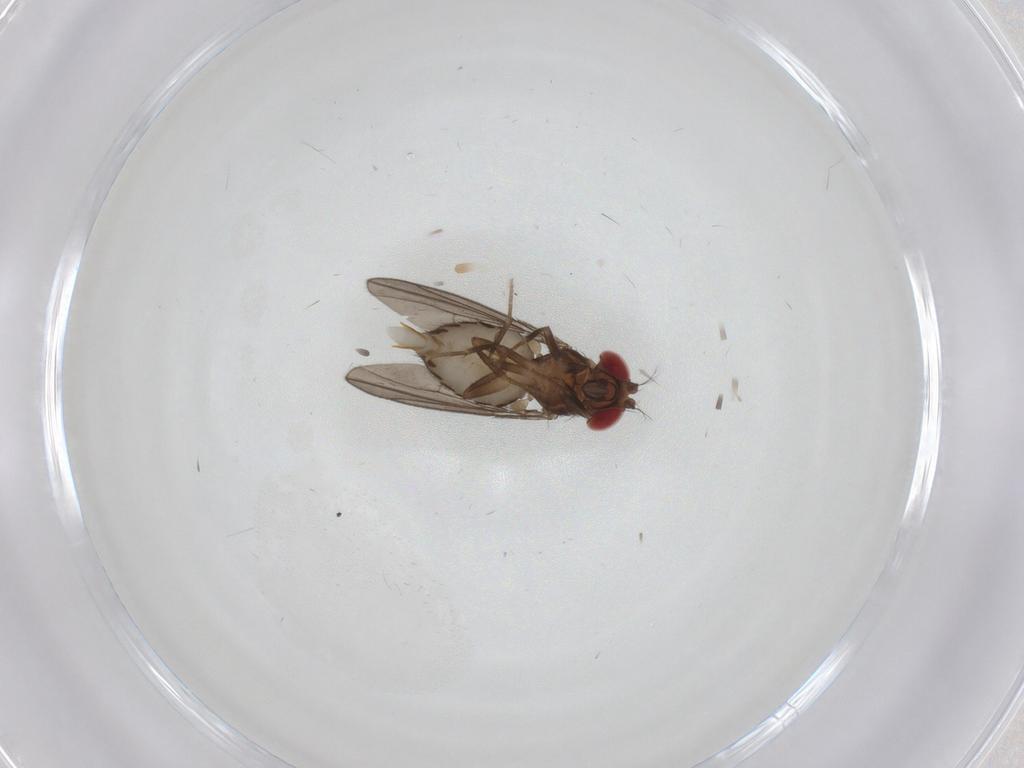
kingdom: Animalia
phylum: Arthropoda
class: Insecta
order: Diptera
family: Drosophilidae
